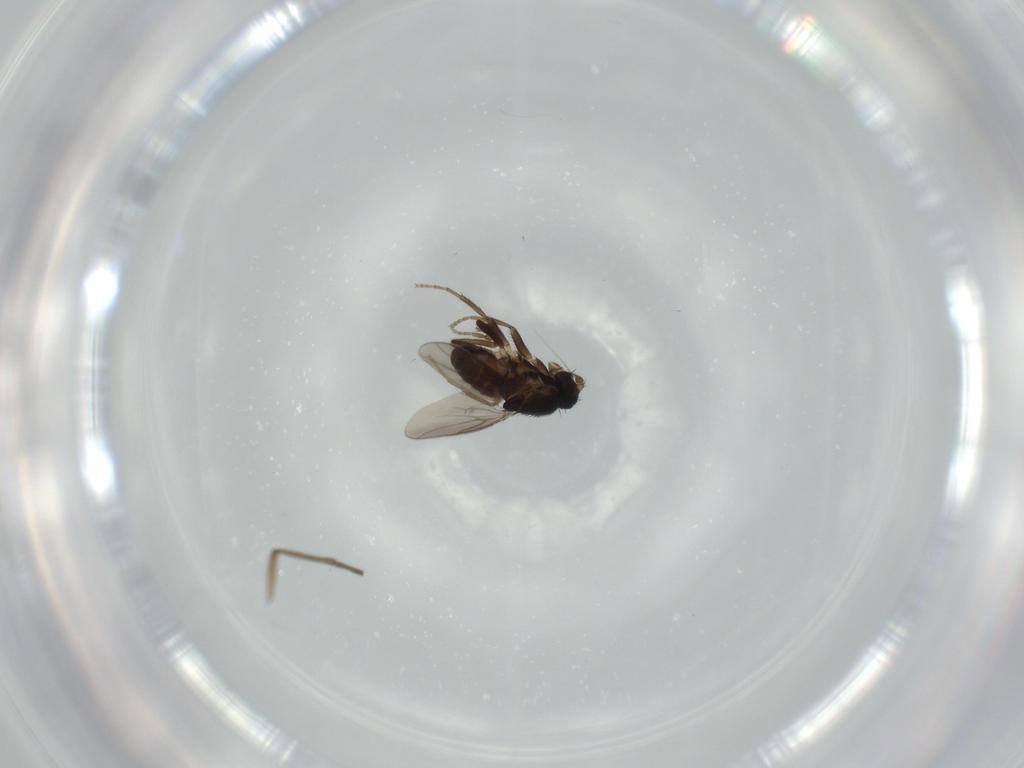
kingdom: Animalia
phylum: Arthropoda
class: Insecta
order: Diptera
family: Sphaeroceridae
